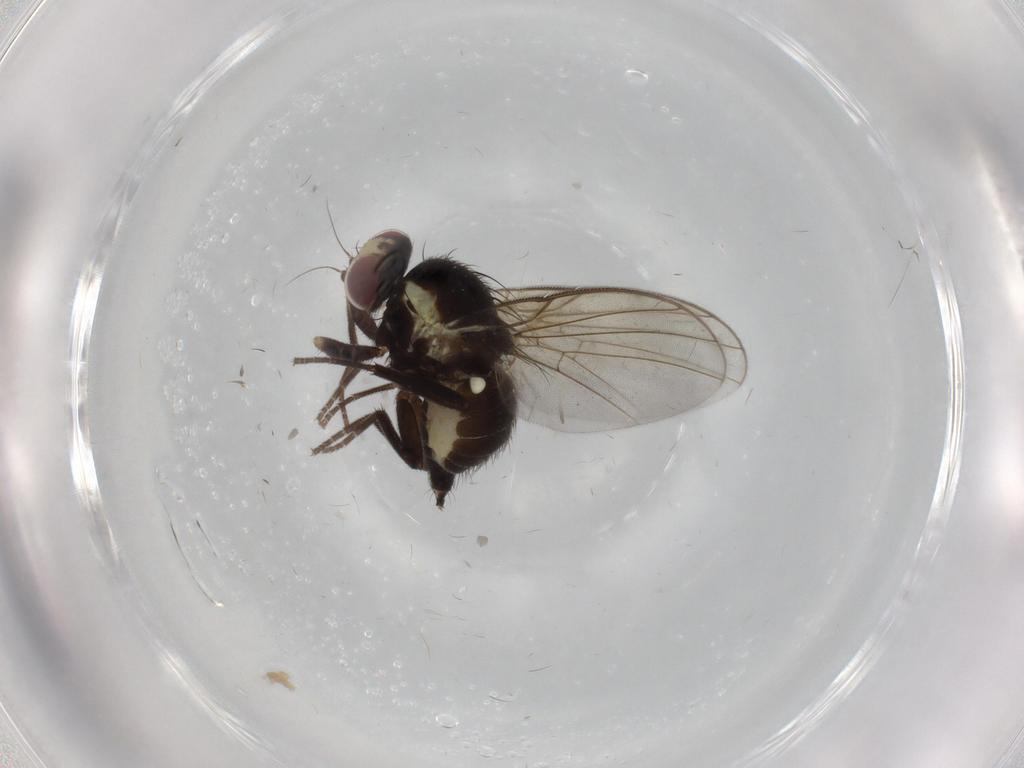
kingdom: Animalia
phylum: Arthropoda
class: Insecta
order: Diptera
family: Agromyzidae
